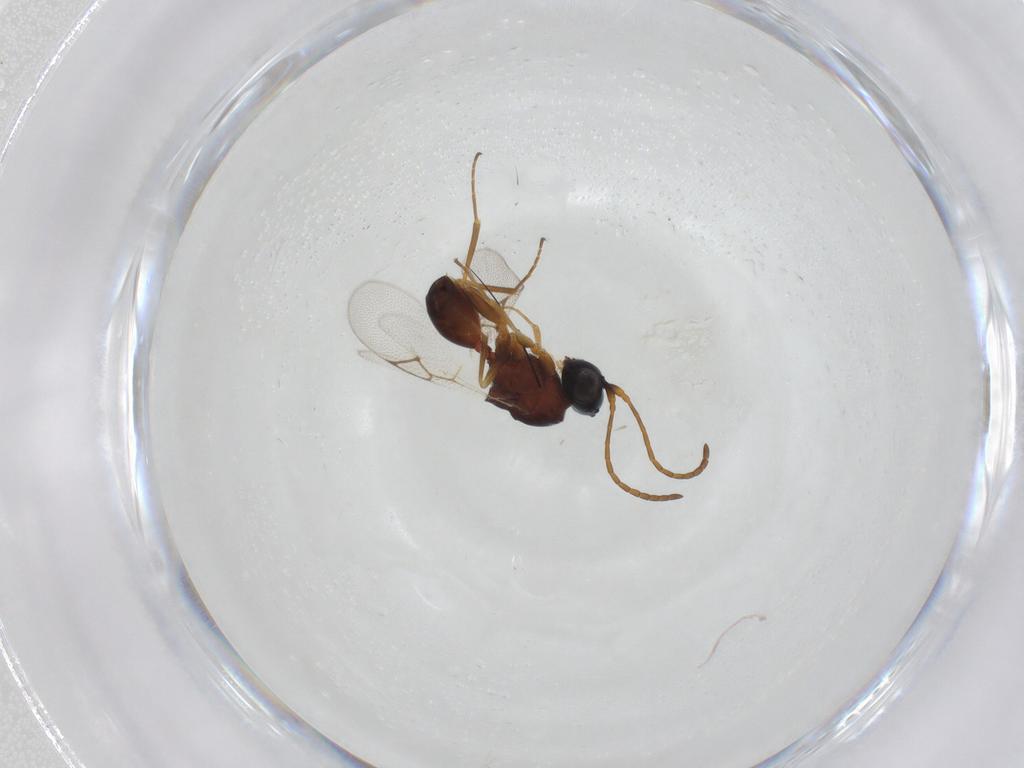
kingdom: Animalia
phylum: Arthropoda
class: Insecta
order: Hymenoptera
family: Figitidae
